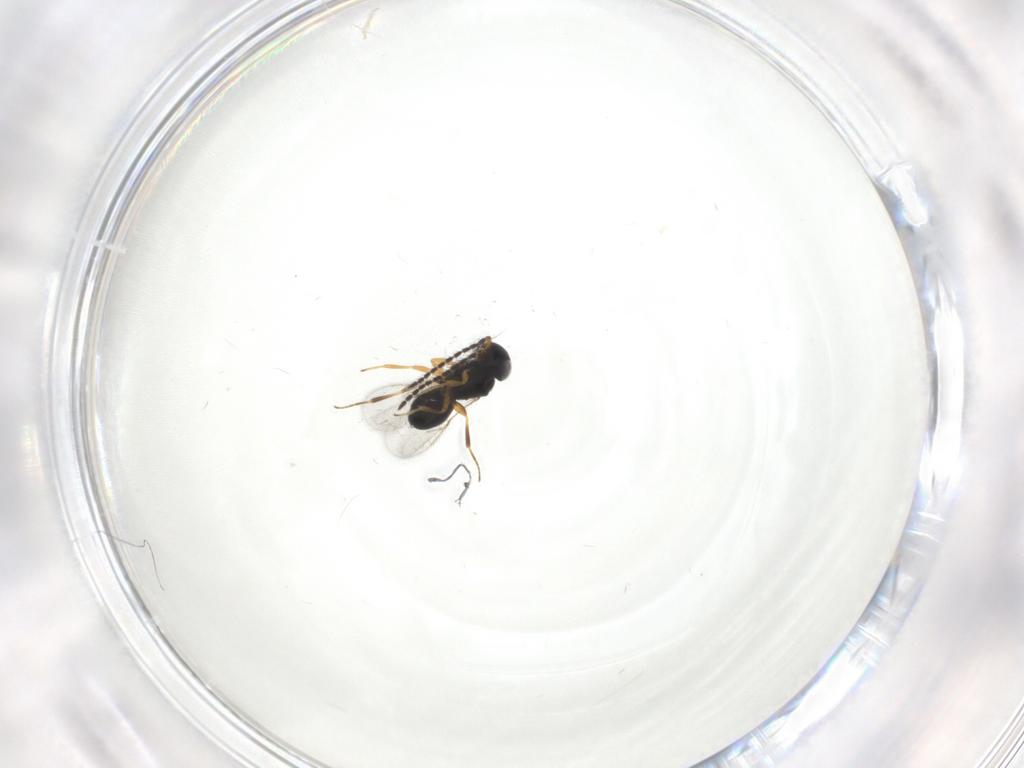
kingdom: Animalia
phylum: Arthropoda
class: Insecta
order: Hymenoptera
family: Scelionidae
